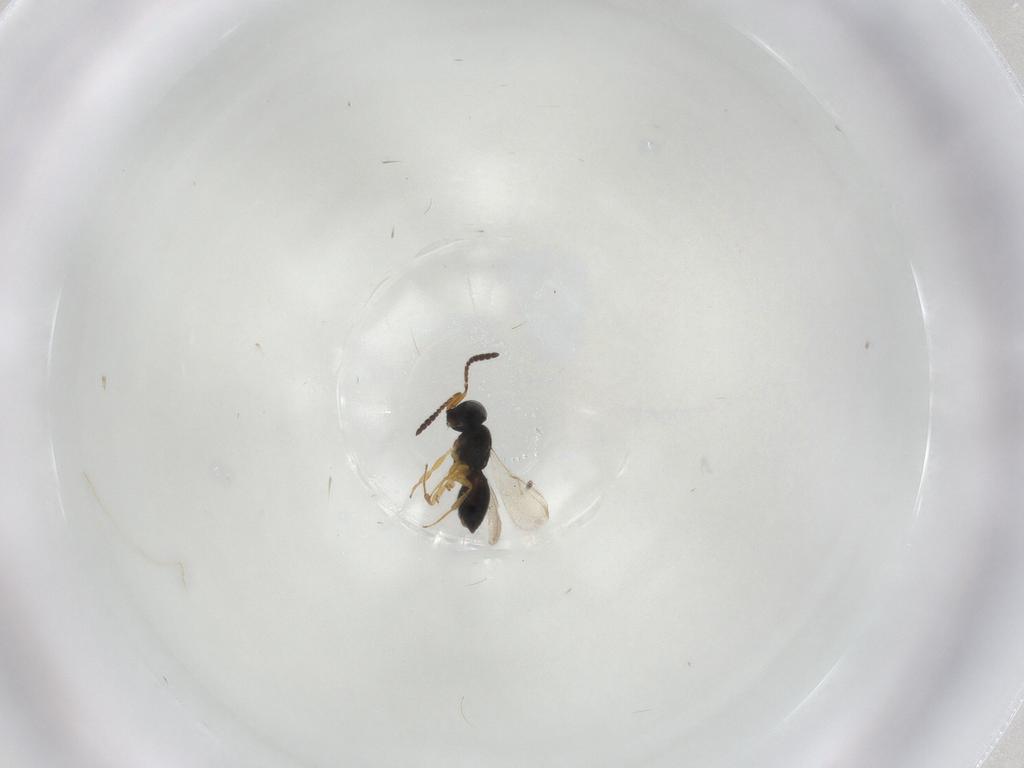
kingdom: Animalia
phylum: Arthropoda
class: Insecta
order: Hymenoptera
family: Scelionidae
